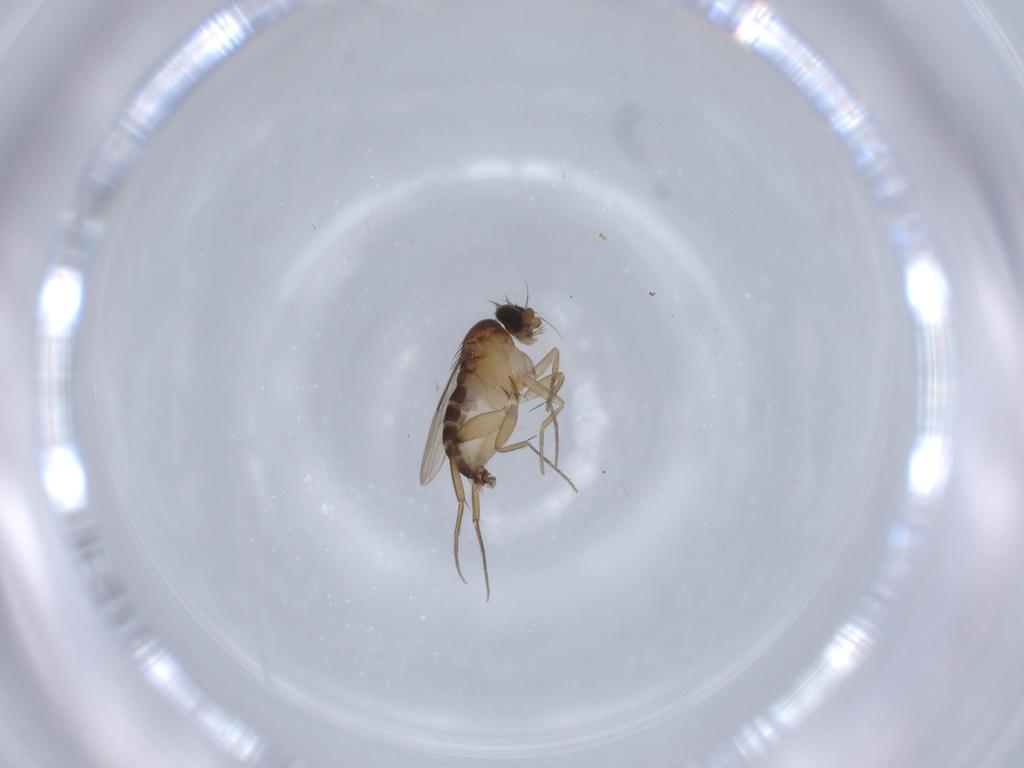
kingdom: Animalia
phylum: Arthropoda
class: Insecta
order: Diptera
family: Phoridae
